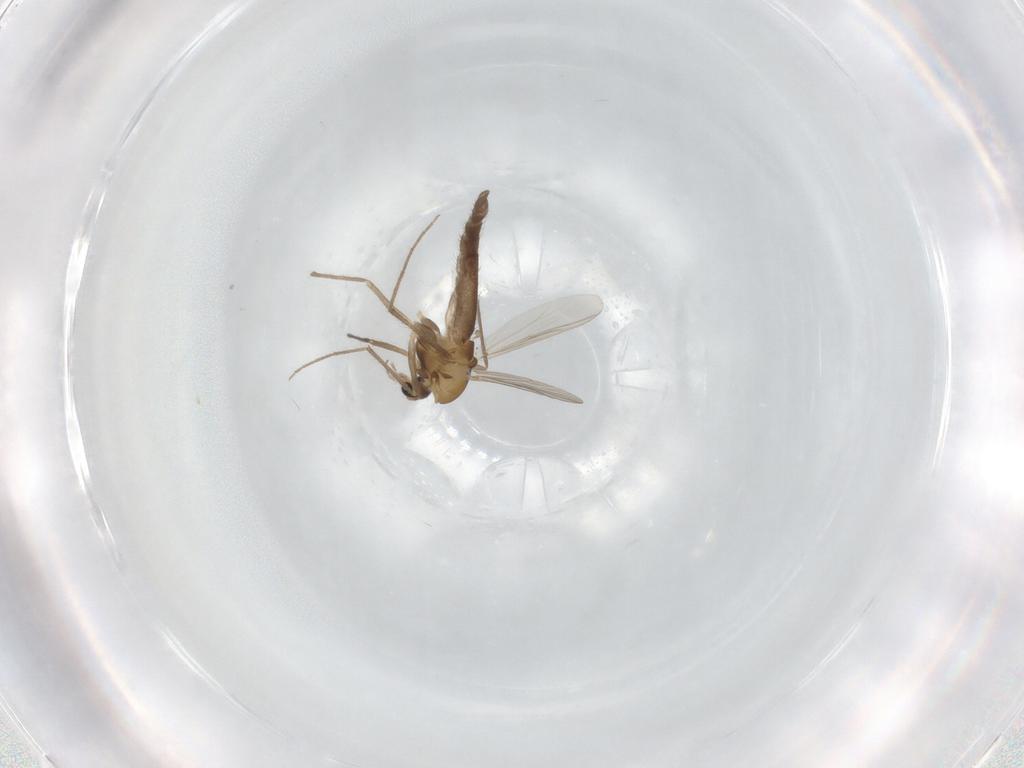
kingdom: Animalia
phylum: Arthropoda
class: Insecta
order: Diptera
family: Chironomidae
